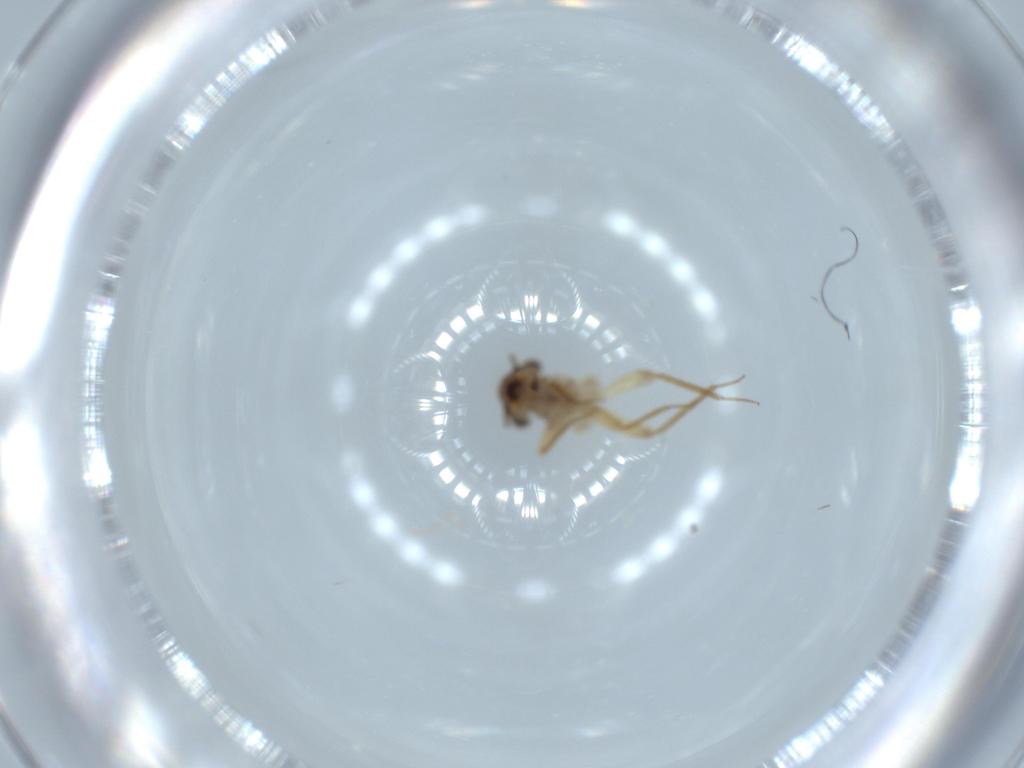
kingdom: Animalia
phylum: Arthropoda
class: Insecta
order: Psocodea
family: Lepidopsocidae
